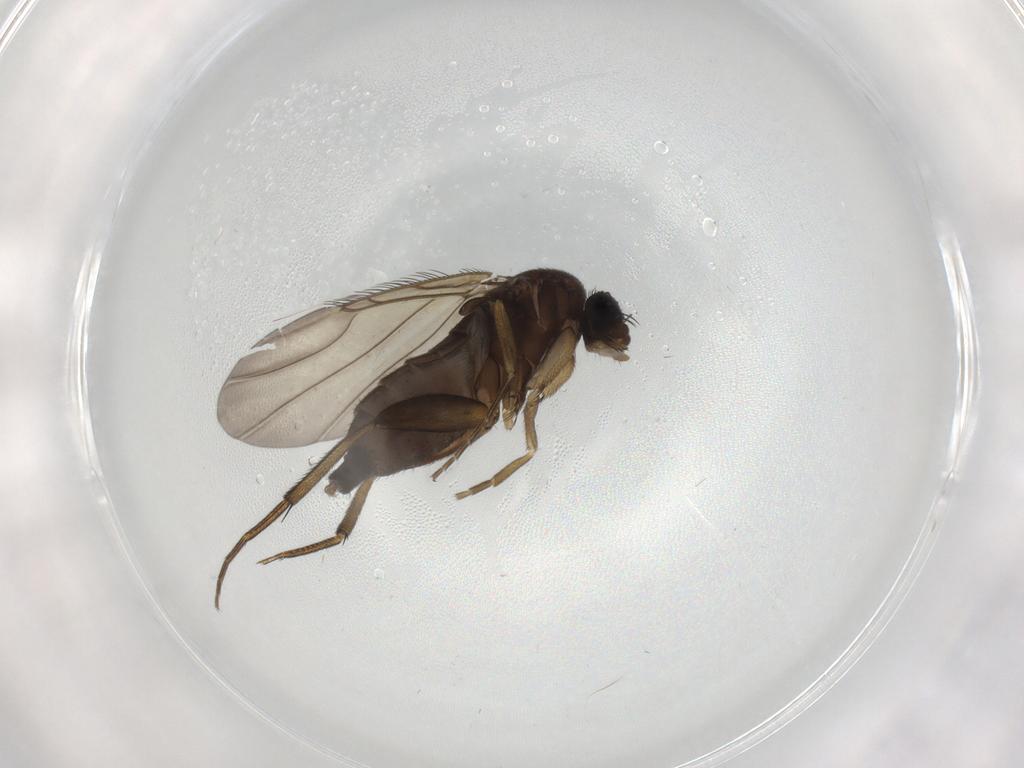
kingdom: Animalia
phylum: Arthropoda
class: Insecta
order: Diptera
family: Phoridae
